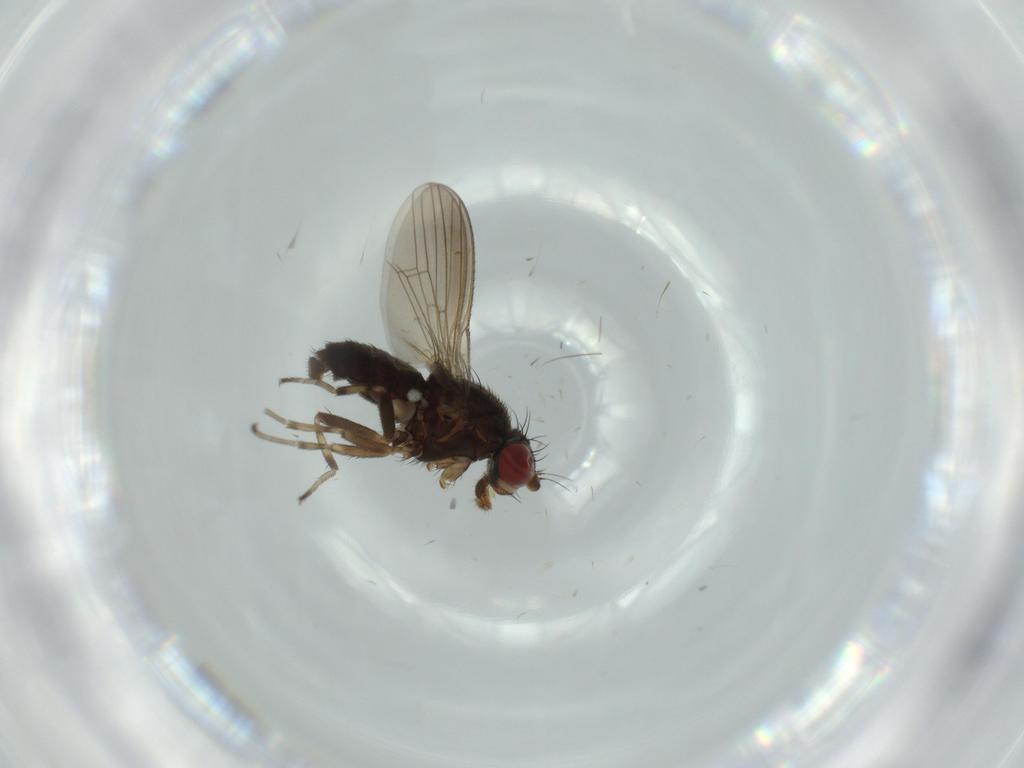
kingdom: Animalia
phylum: Arthropoda
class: Insecta
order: Diptera
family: Heleomyzidae
